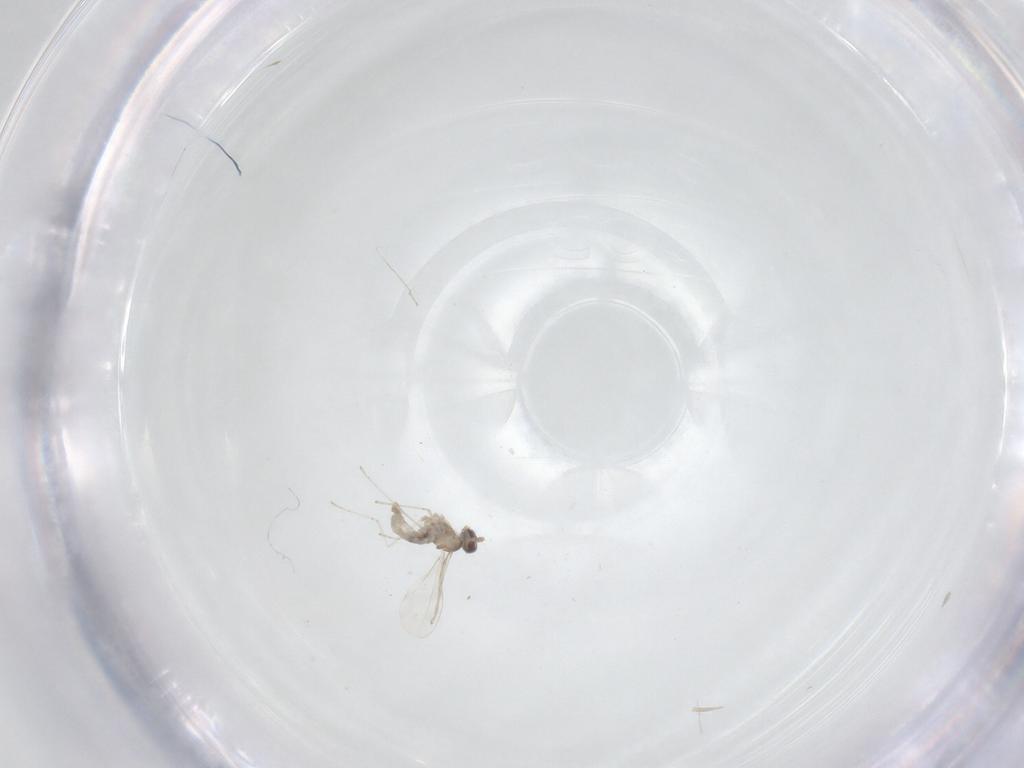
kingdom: Animalia
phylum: Arthropoda
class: Insecta
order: Diptera
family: Cecidomyiidae
